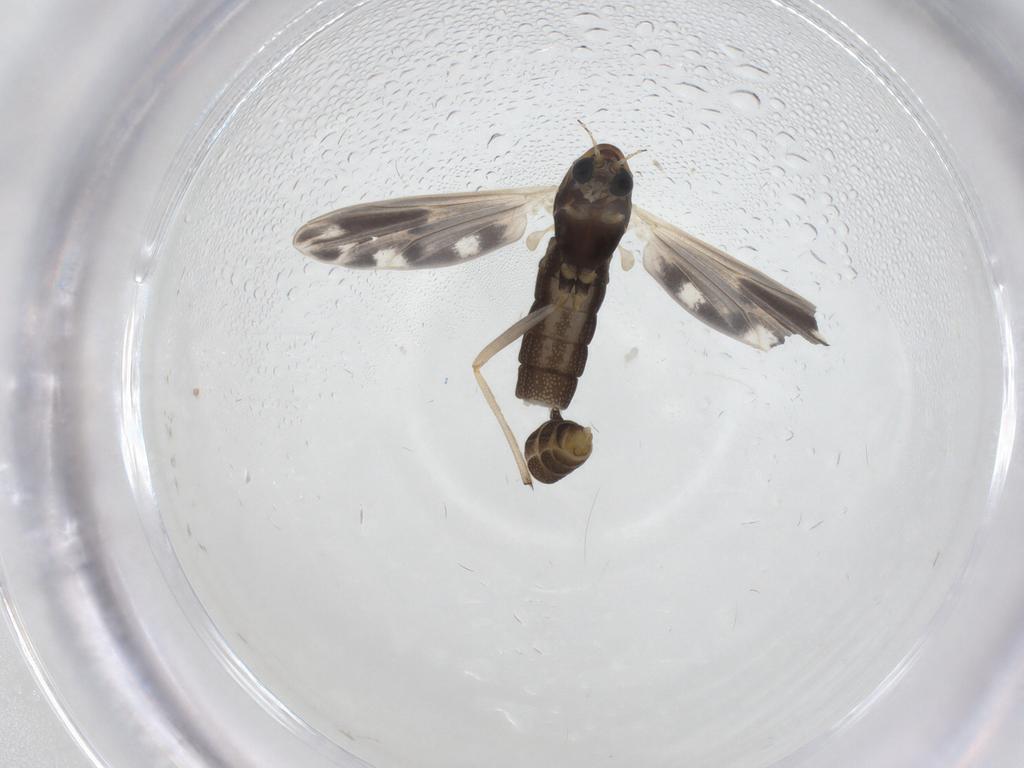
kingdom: Animalia
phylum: Arthropoda
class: Insecta
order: Diptera
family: Chironomidae
